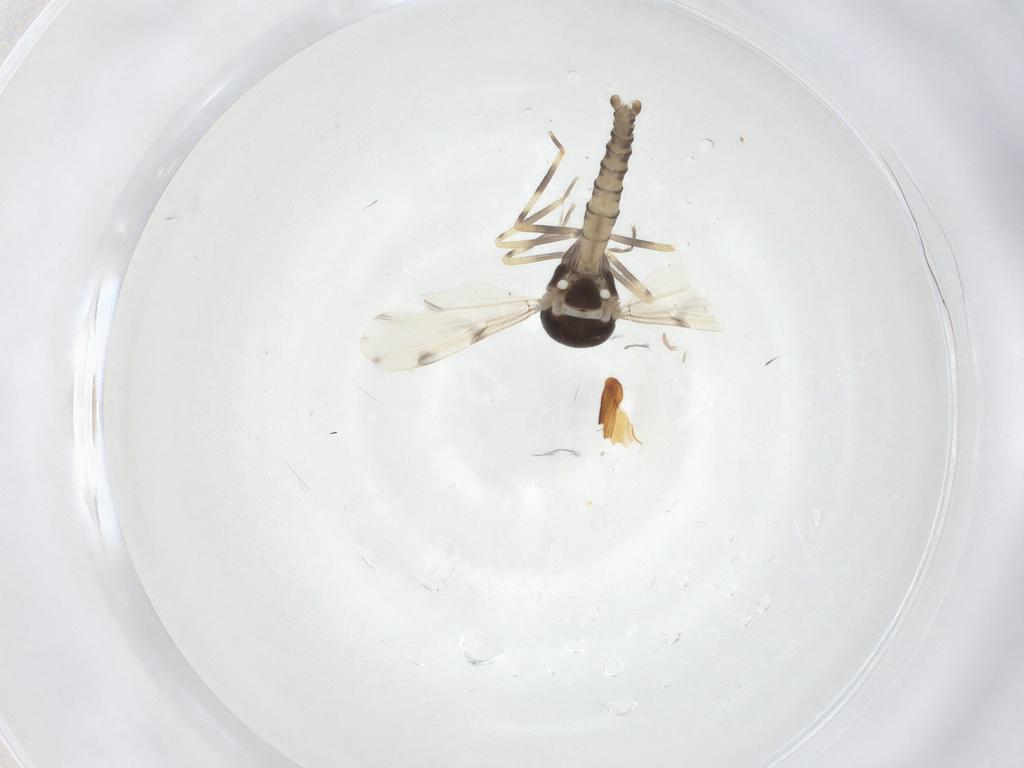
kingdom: Animalia
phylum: Arthropoda
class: Insecta
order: Diptera
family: Ceratopogonidae
